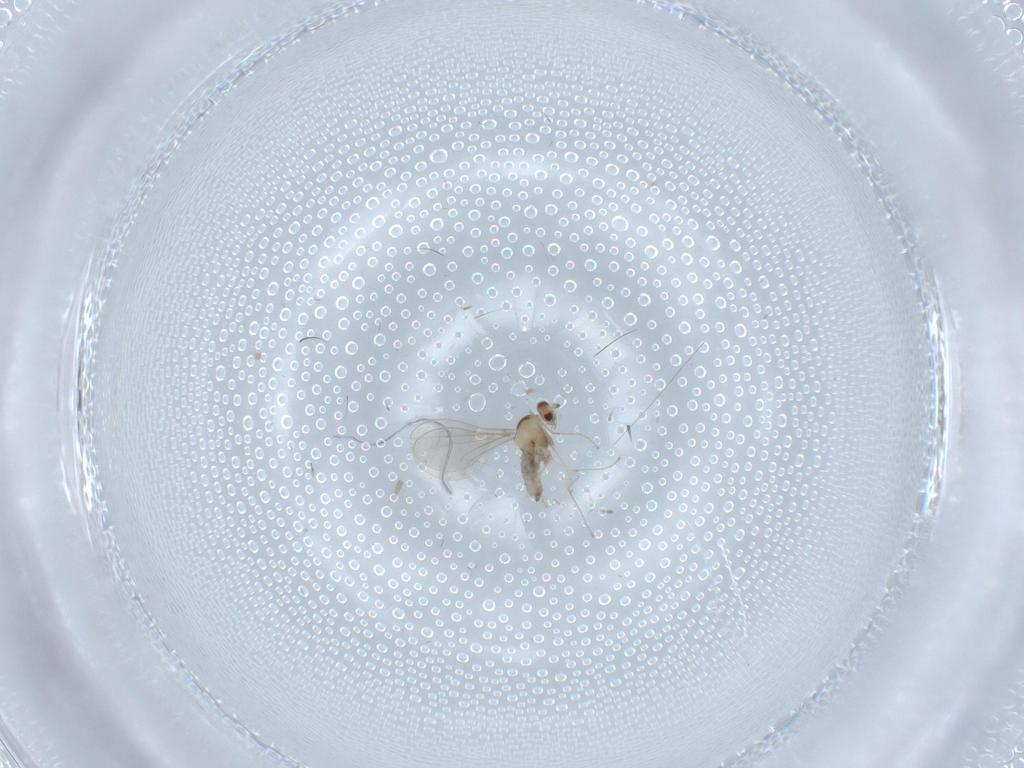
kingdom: Animalia
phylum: Arthropoda
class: Insecta
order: Diptera
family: Cecidomyiidae
